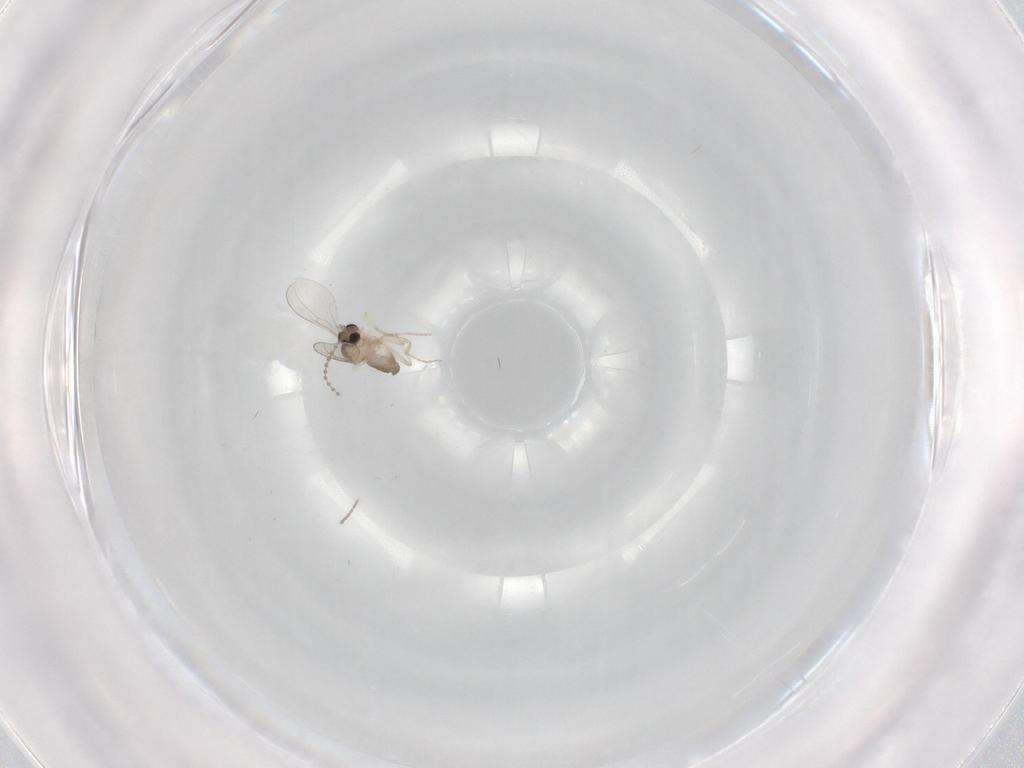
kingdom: Animalia
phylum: Arthropoda
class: Insecta
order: Diptera
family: Cecidomyiidae
